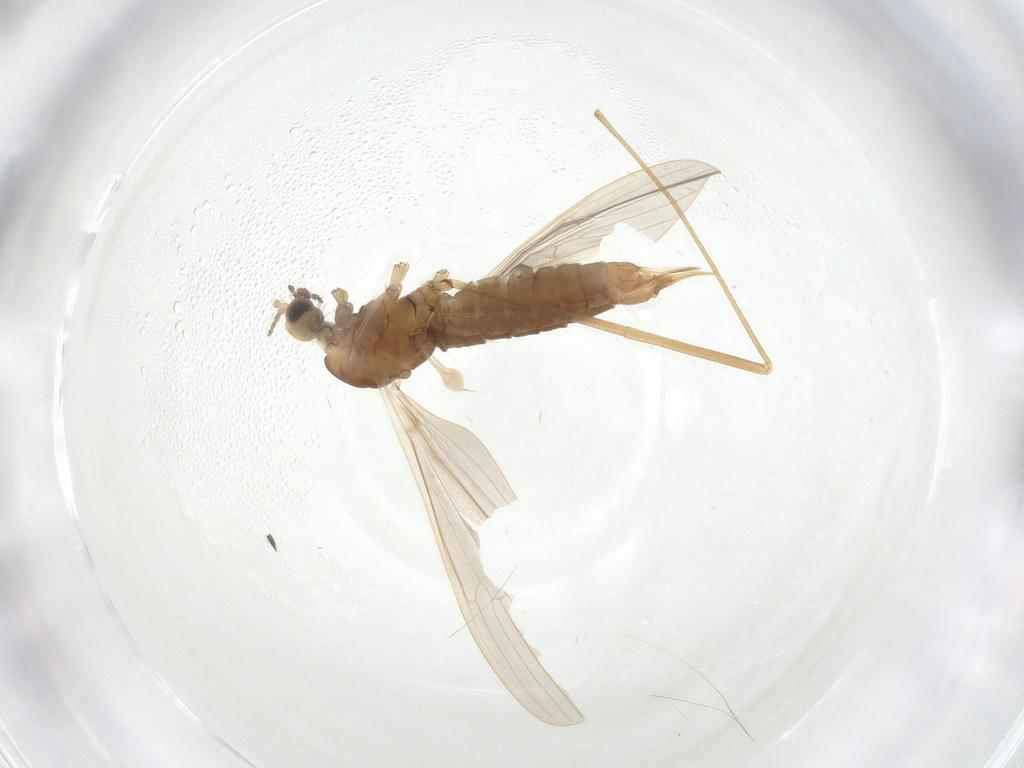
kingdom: Animalia
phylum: Arthropoda
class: Insecta
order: Diptera
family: Limoniidae
